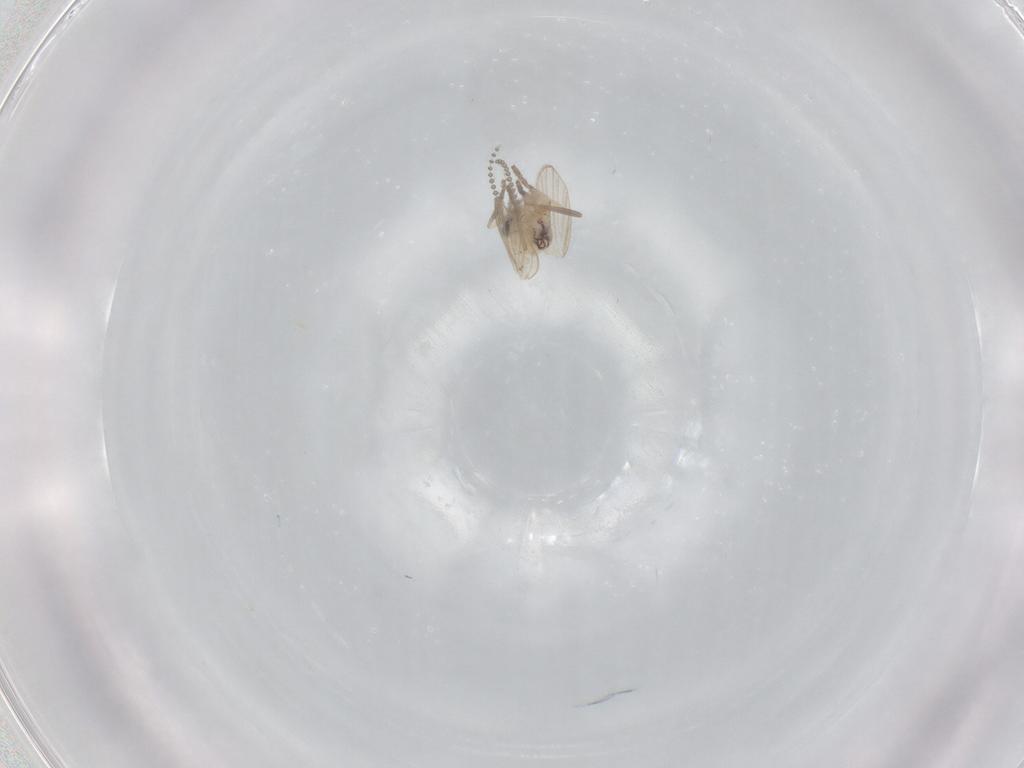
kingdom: Animalia
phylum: Arthropoda
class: Insecta
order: Diptera
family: Psychodidae
